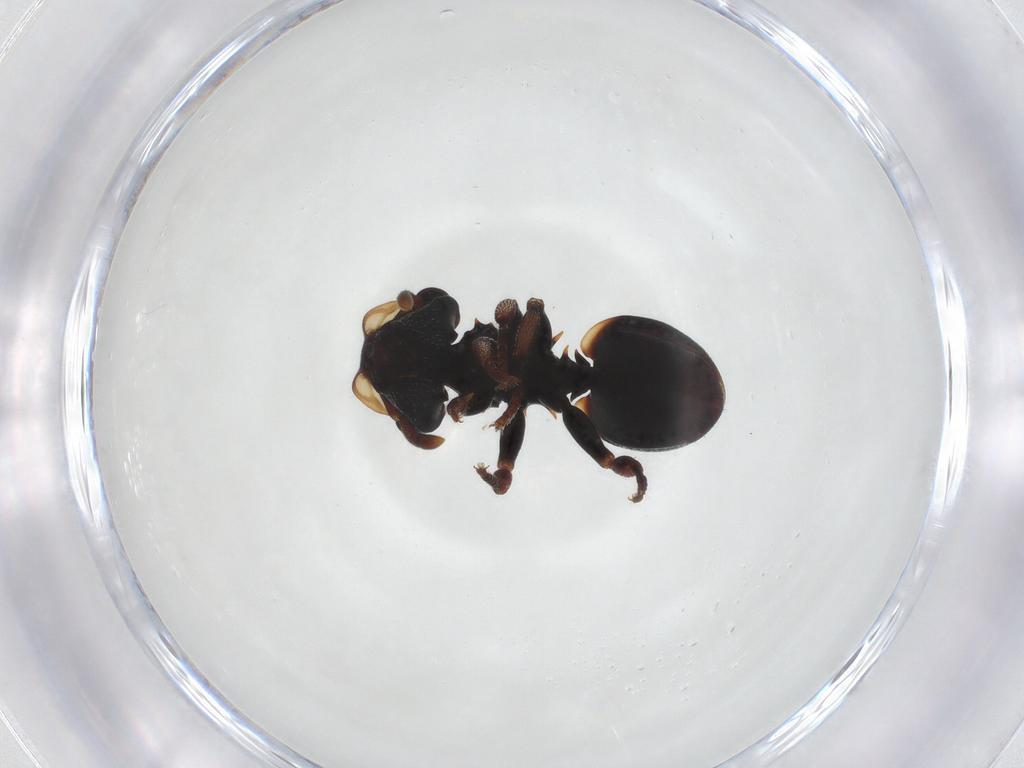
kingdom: Animalia
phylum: Arthropoda
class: Insecta
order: Hymenoptera
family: Formicidae
